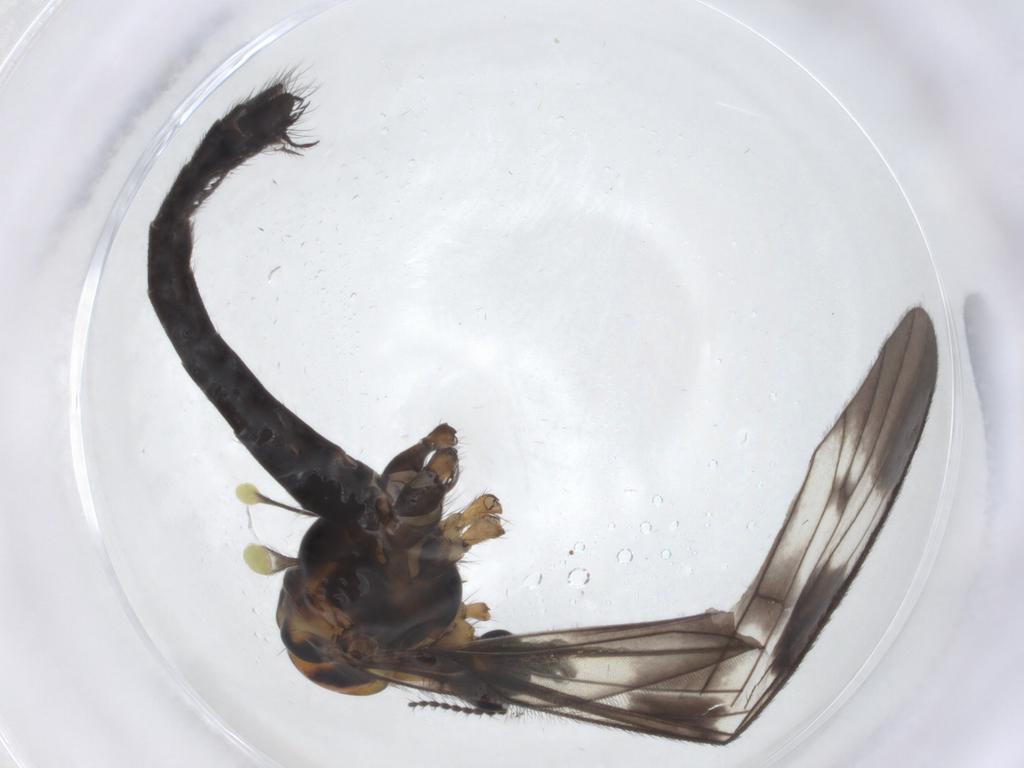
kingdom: Animalia
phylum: Arthropoda
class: Insecta
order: Diptera
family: Limoniidae
